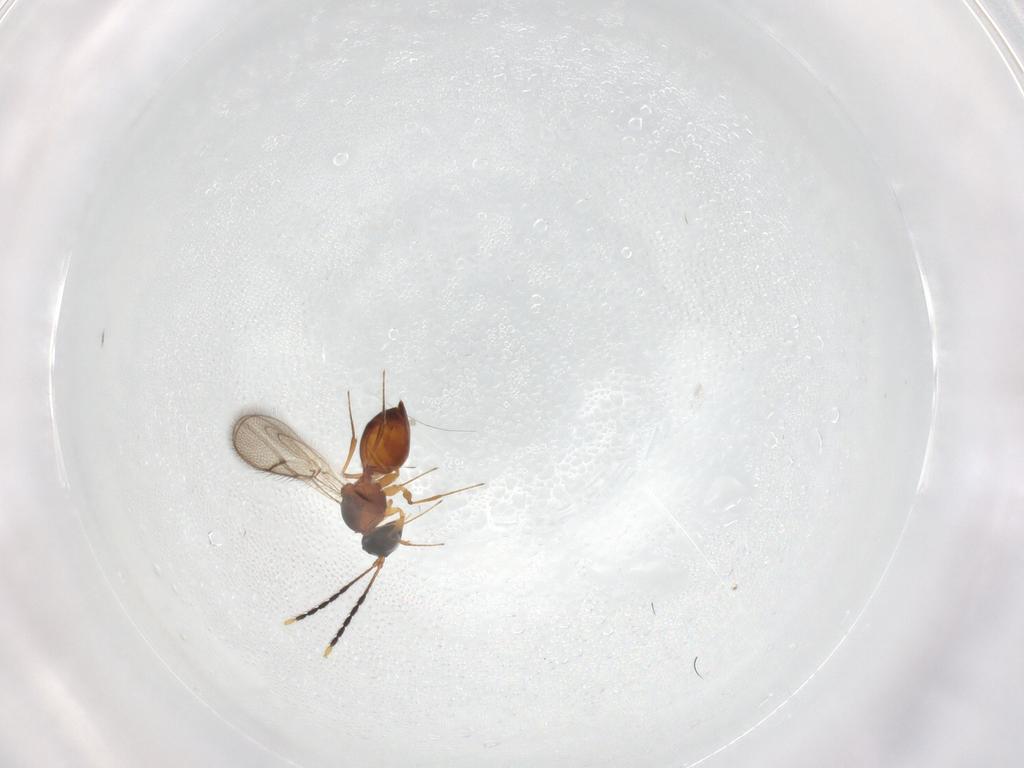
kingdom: Animalia
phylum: Arthropoda
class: Insecta
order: Hymenoptera
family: Figitidae
